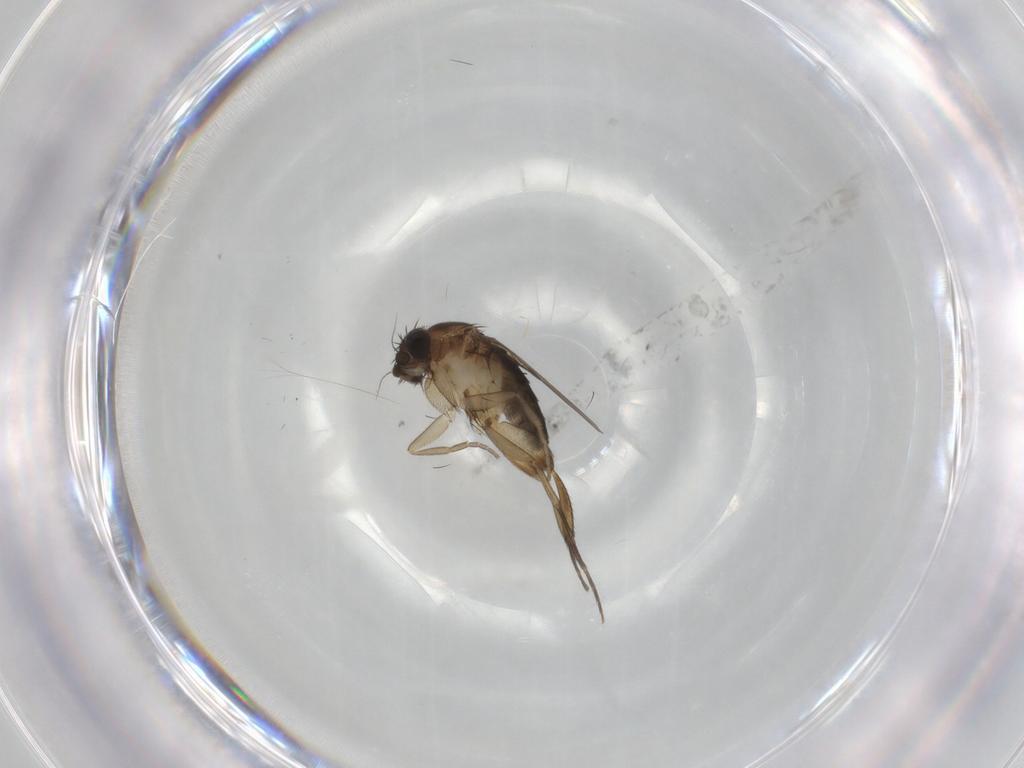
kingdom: Animalia
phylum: Arthropoda
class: Insecta
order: Diptera
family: Phoridae
